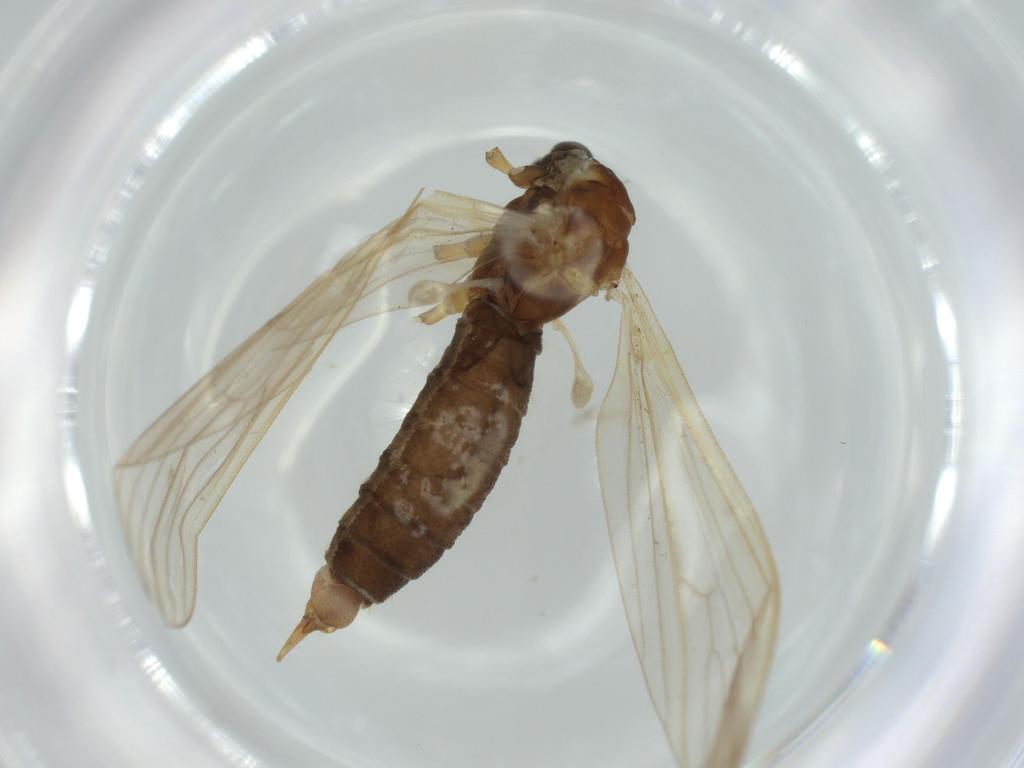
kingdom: Animalia
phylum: Arthropoda
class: Insecta
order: Diptera
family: Limoniidae
